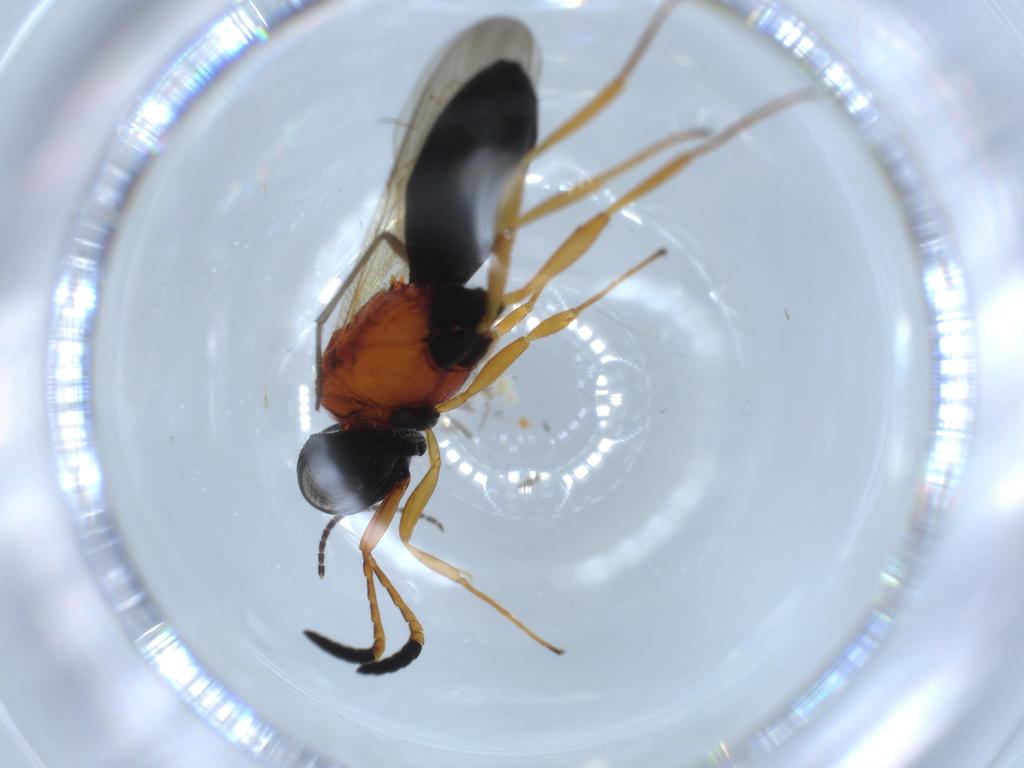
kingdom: Animalia
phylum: Arthropoda
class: Insecta
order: Hymenoptera
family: Scelionidae
